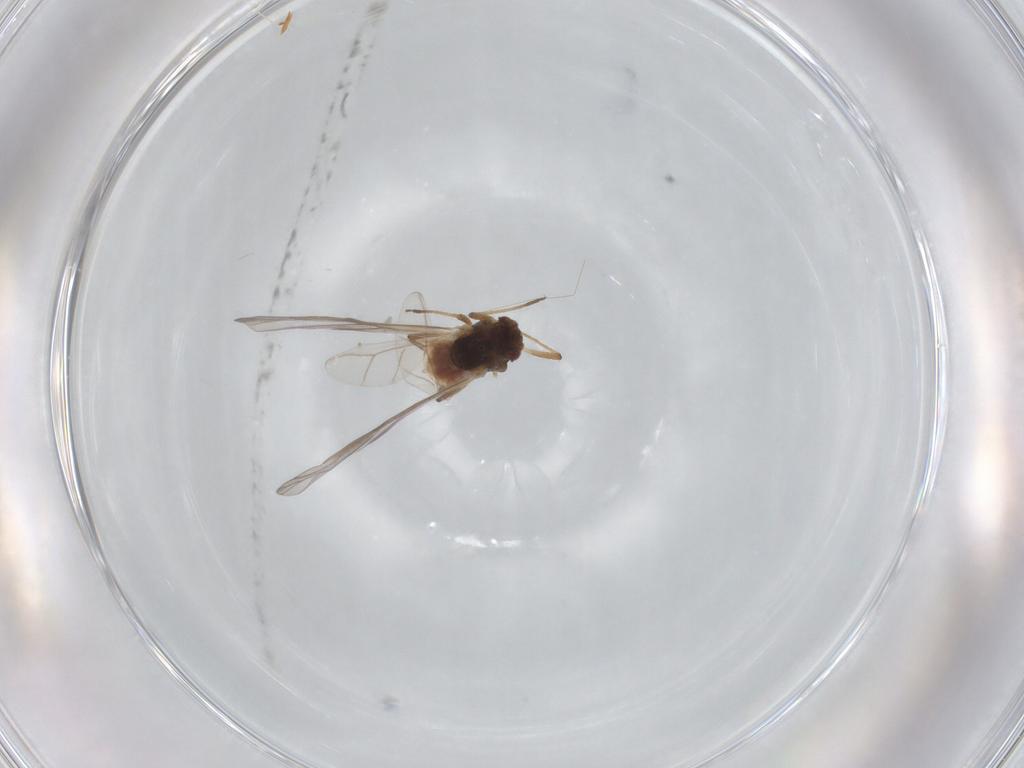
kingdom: Animalia
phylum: Arthropoda
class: Insecta
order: Hemiptera
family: Aphididae
